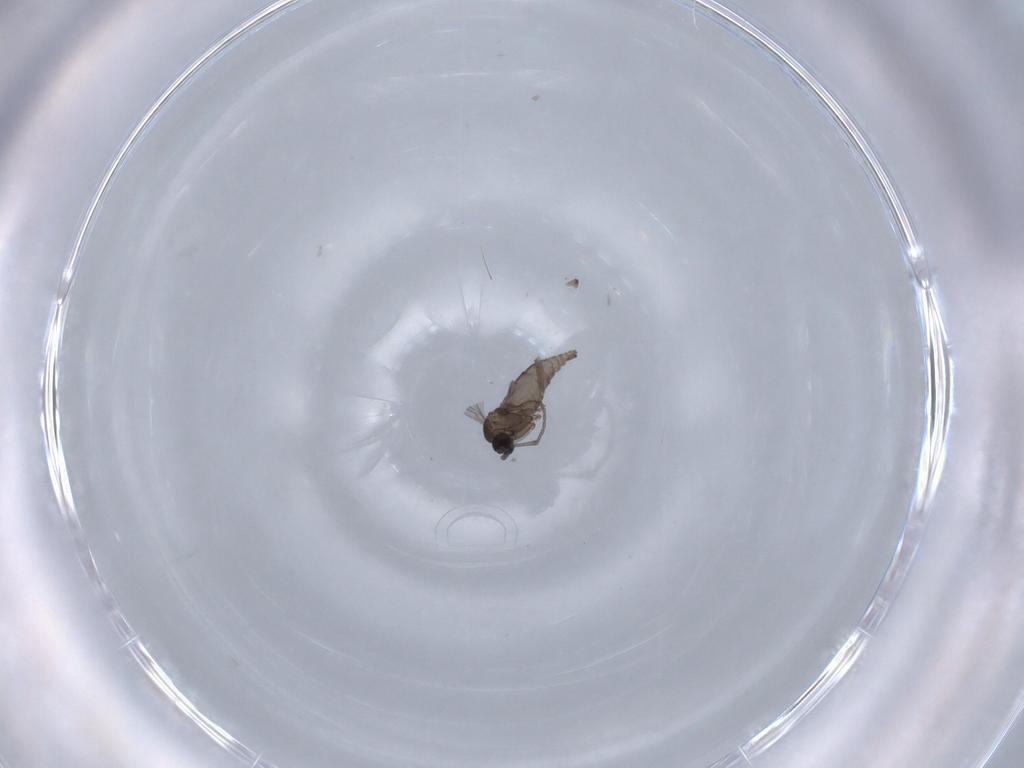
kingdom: Animalia
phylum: Arthropoda
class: Insecta
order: Diptera
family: Sciaridae
